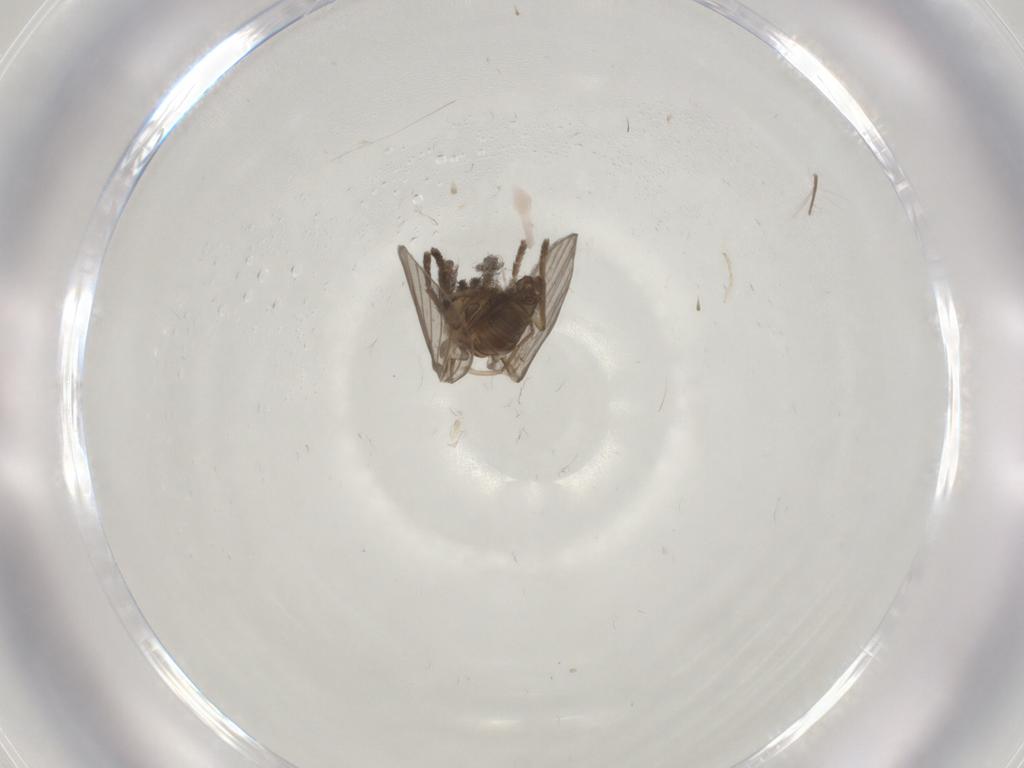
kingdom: Animalia
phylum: Arthropoda
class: Insecta
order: Diptera
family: Psychodidae
